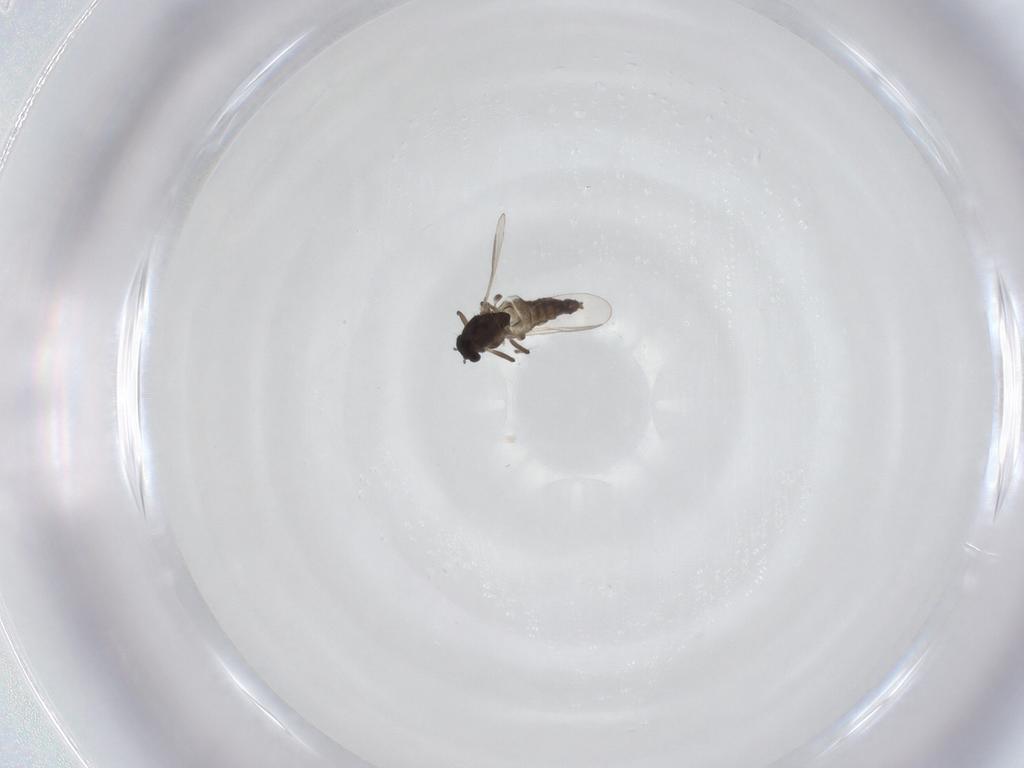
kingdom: Animalia
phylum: Arthropoda
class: Insecta
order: Diptera
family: Chironomidae
